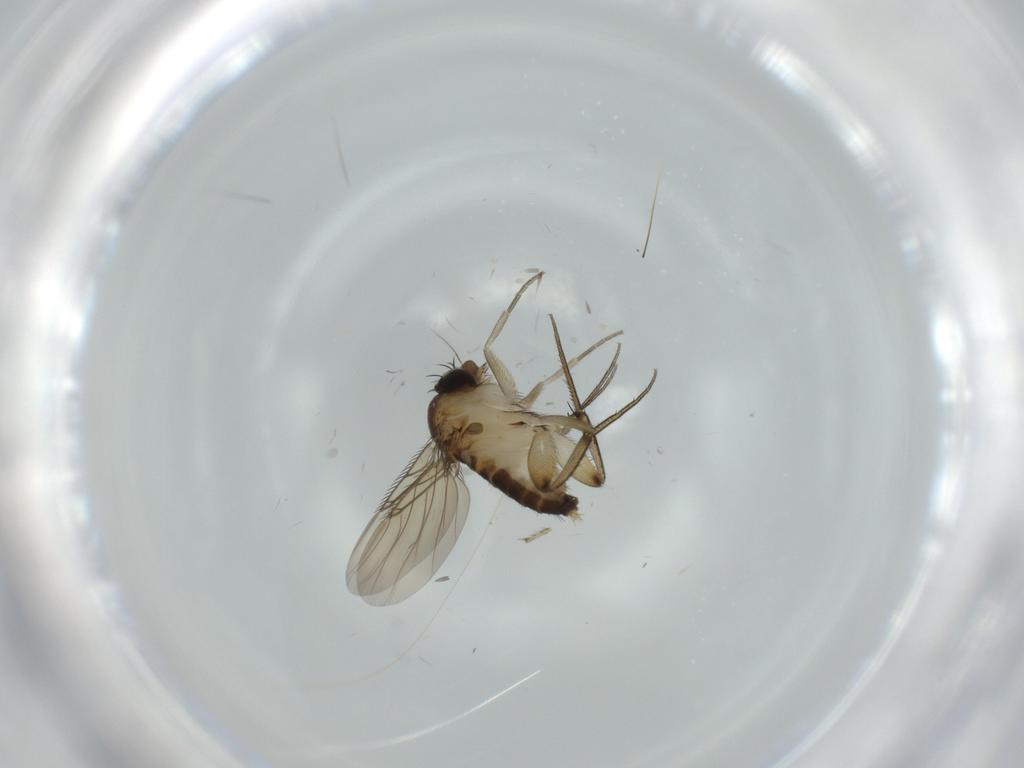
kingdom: Animalia
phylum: Arthropoda
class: Insecta
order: Diptera
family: Ceratopogonidae
